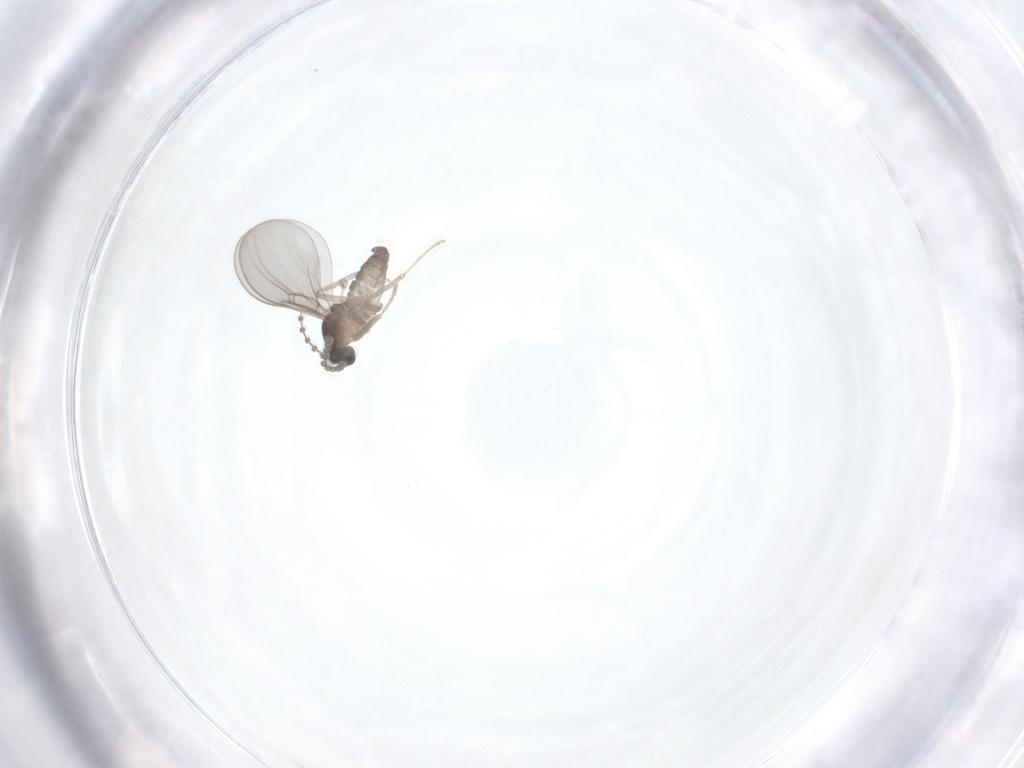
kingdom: Animalia
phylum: Arthropoda
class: Insecta
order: Diptera
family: Cecidomyiidae
